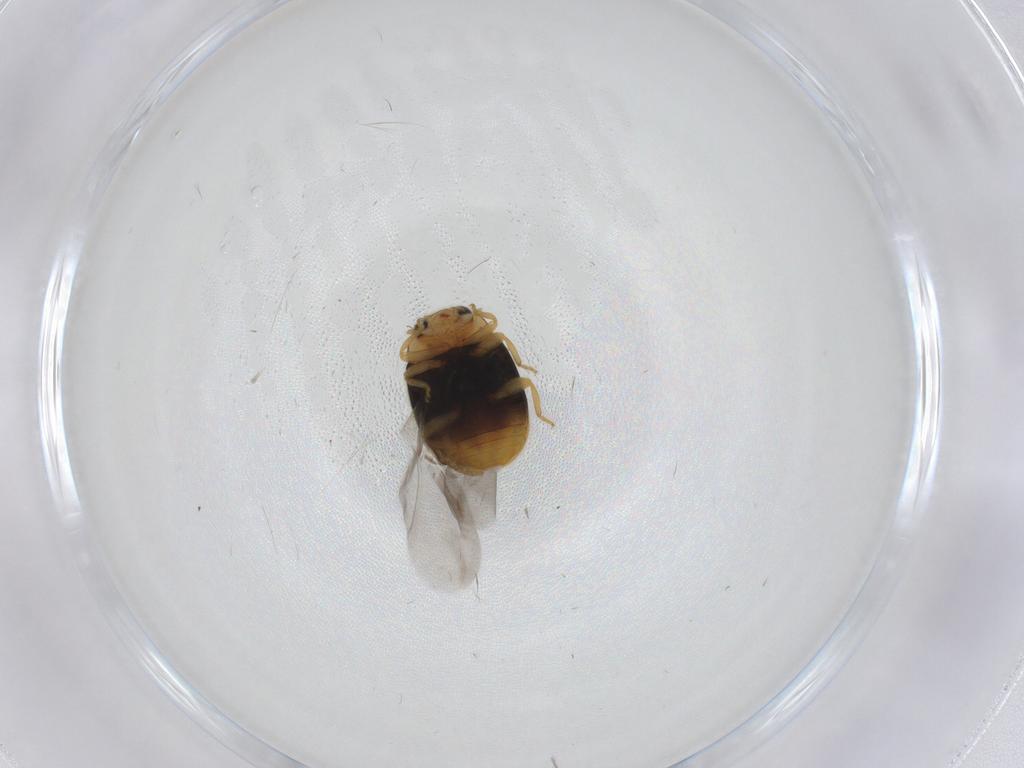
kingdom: Animalia
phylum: Arthropoda
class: Insecta
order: Coleoptera
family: Coccinellidae
